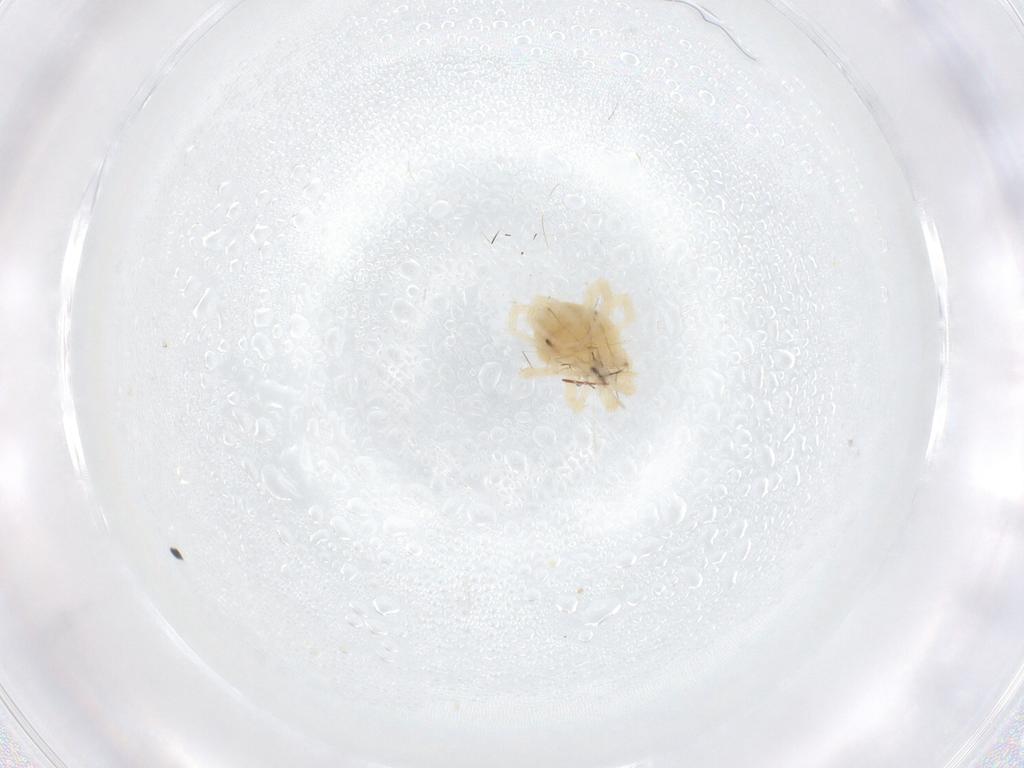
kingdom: Animalia
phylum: Arthropoda
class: Arachnida
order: Trombidiformes
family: Anystidae
